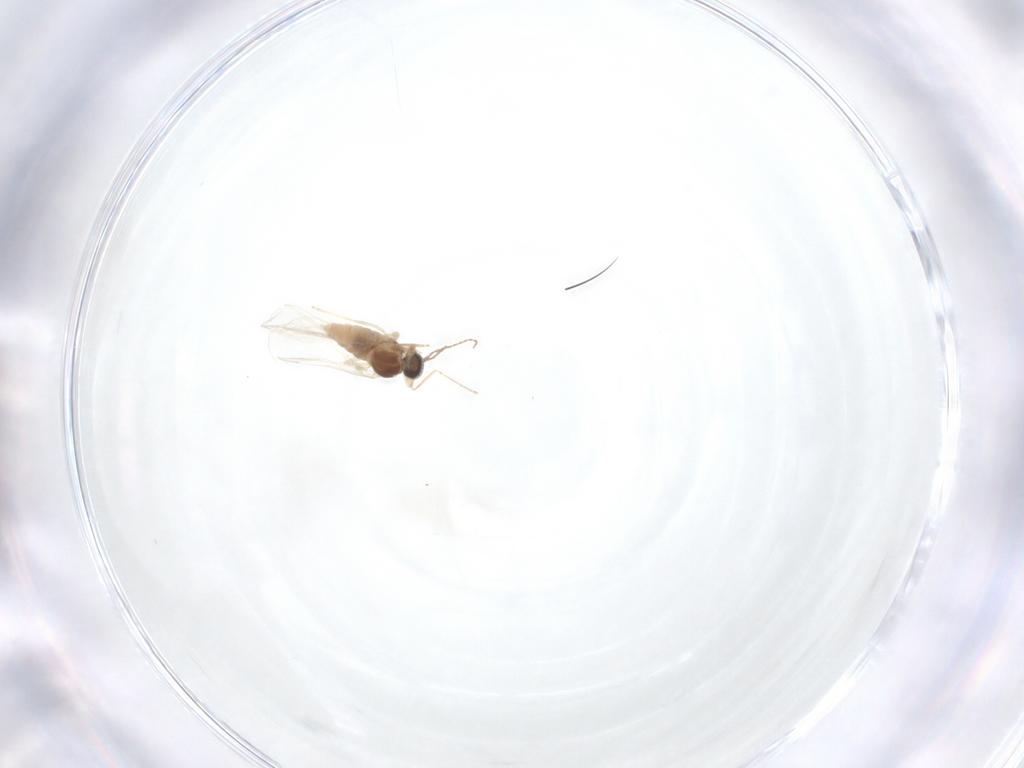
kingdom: Animalia
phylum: Arthropoda
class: Insecta
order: Diptera
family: Cecidomyiidae
